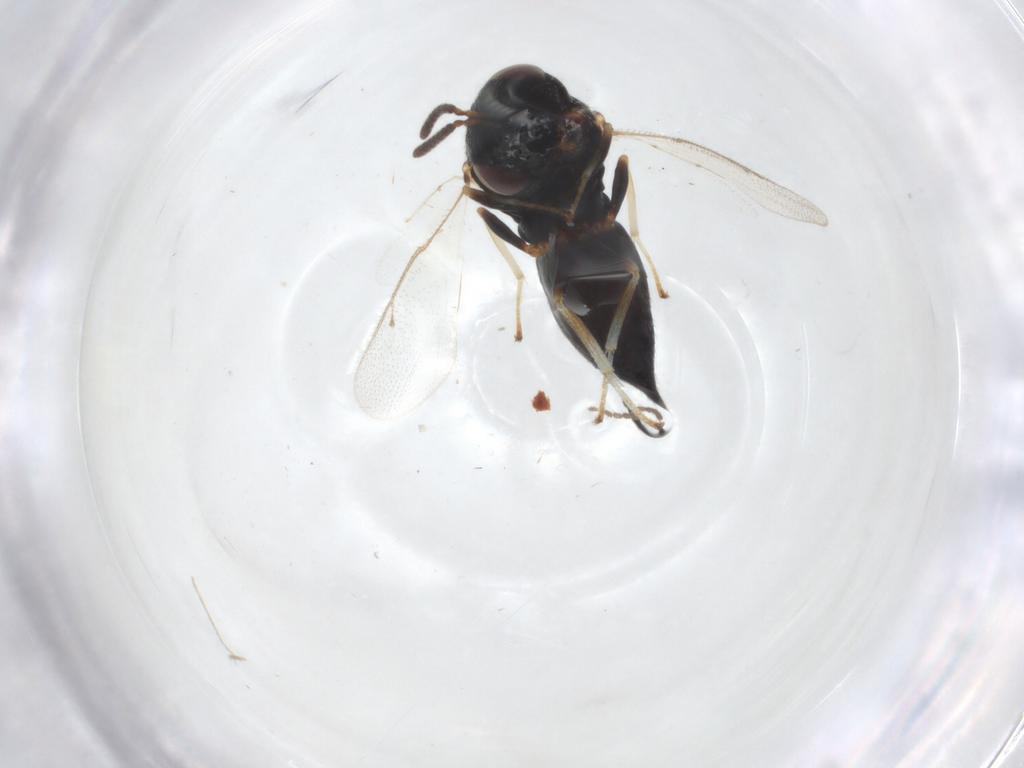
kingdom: Animalia
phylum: Arthropoda
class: Insecta
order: Hymenoptera
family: Pteromalidae
